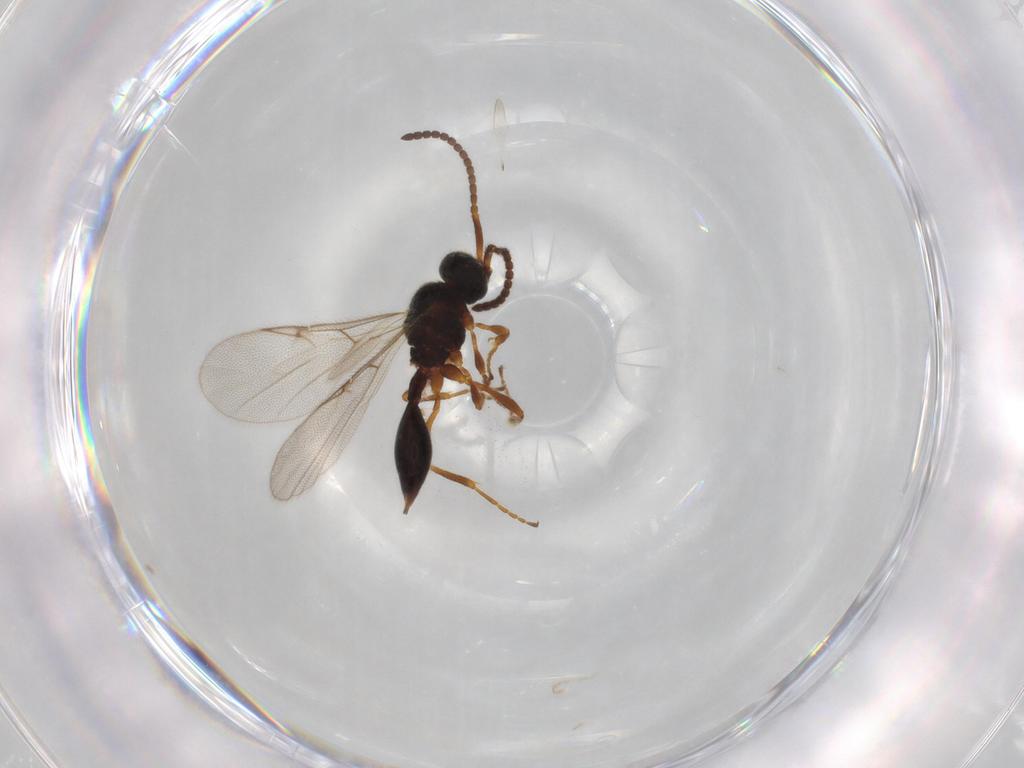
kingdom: Animalia
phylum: Arthropoda
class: Insecta
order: Hymenoptera
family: Diapriidae
